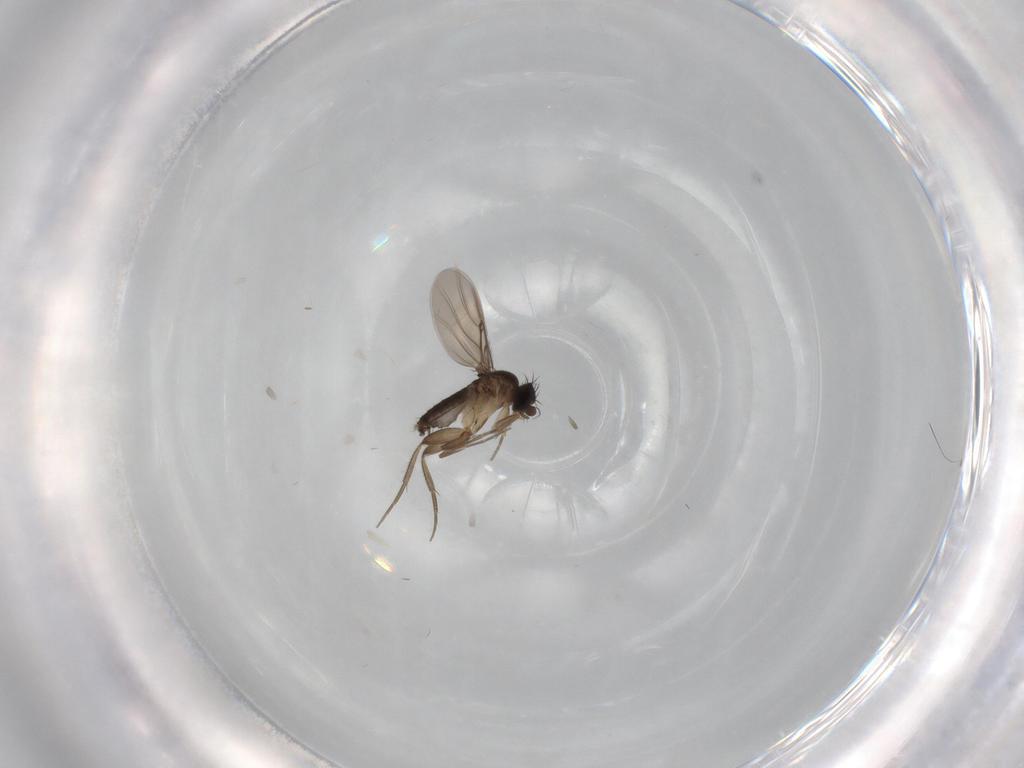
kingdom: Animalia
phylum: Arthropoda
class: Insecta
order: Diptera
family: Phoridae
